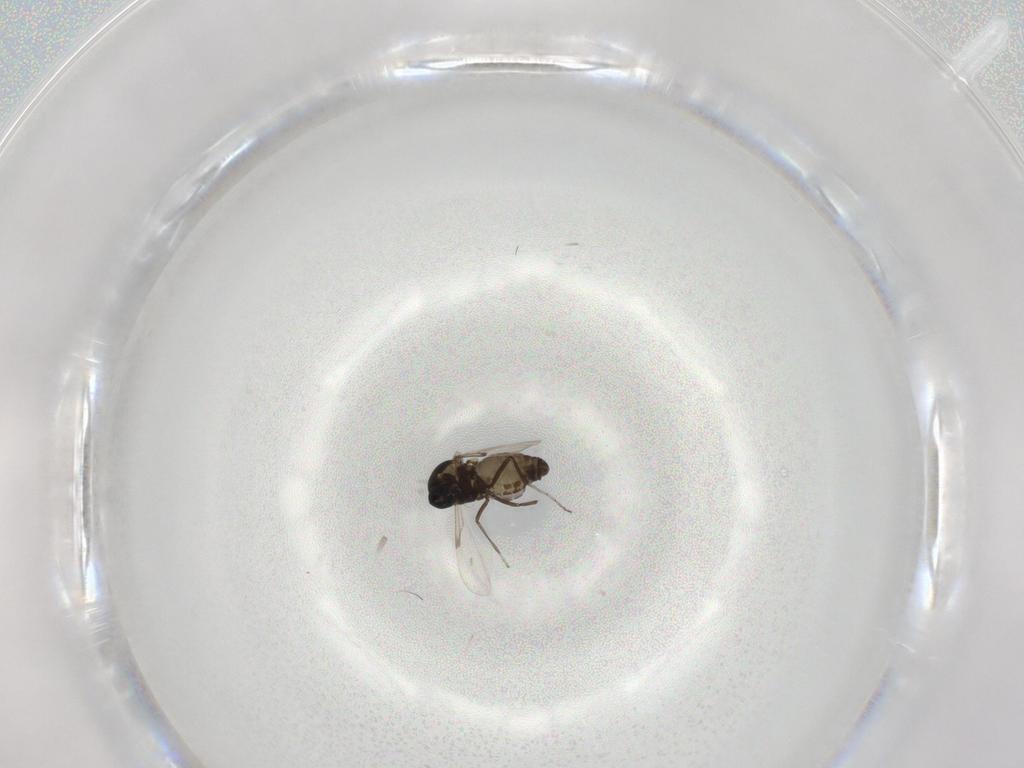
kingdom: Animalia
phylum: Arthropoda
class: Insecta
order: Diptera
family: Ceratopogonidae
